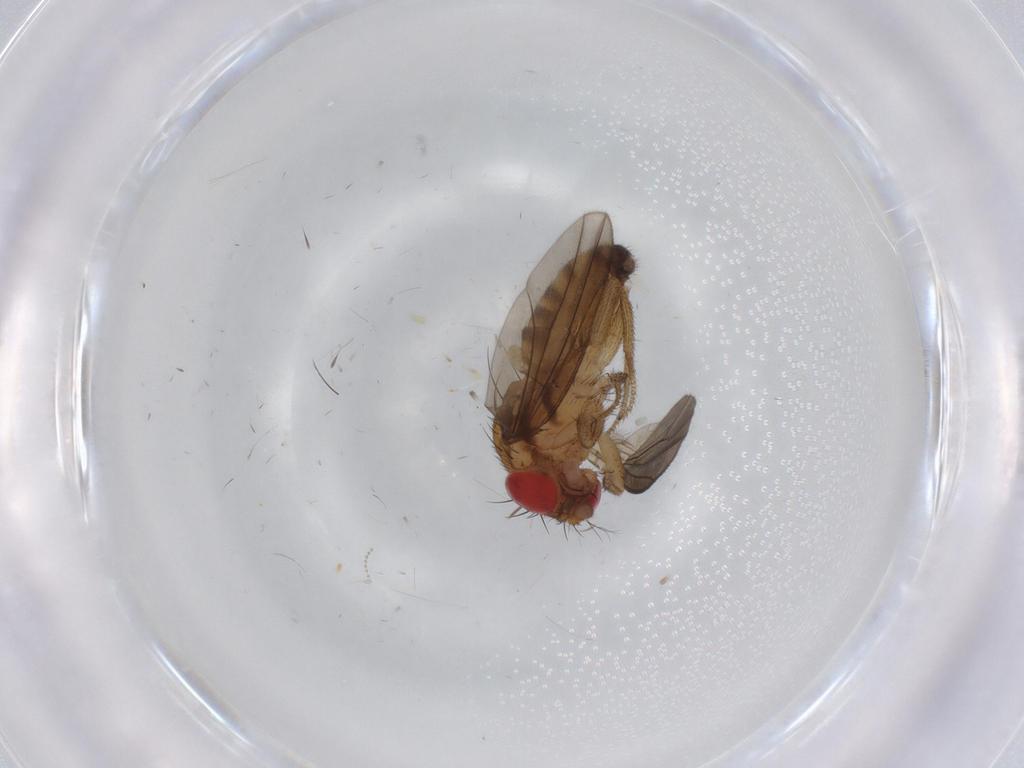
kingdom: Animalia
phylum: Arthropoda
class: Insecta
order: Diptera
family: Drosophilidae
